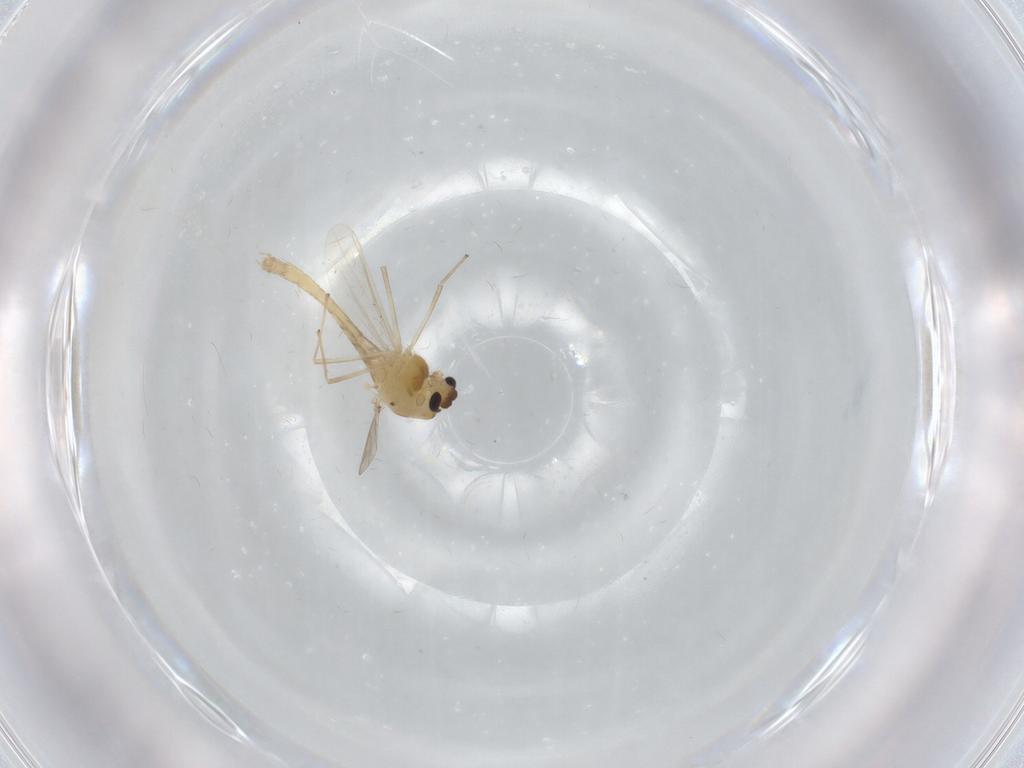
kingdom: Animalia
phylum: Arthropoda
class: Insecta
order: Diptera
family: Chironomidae
